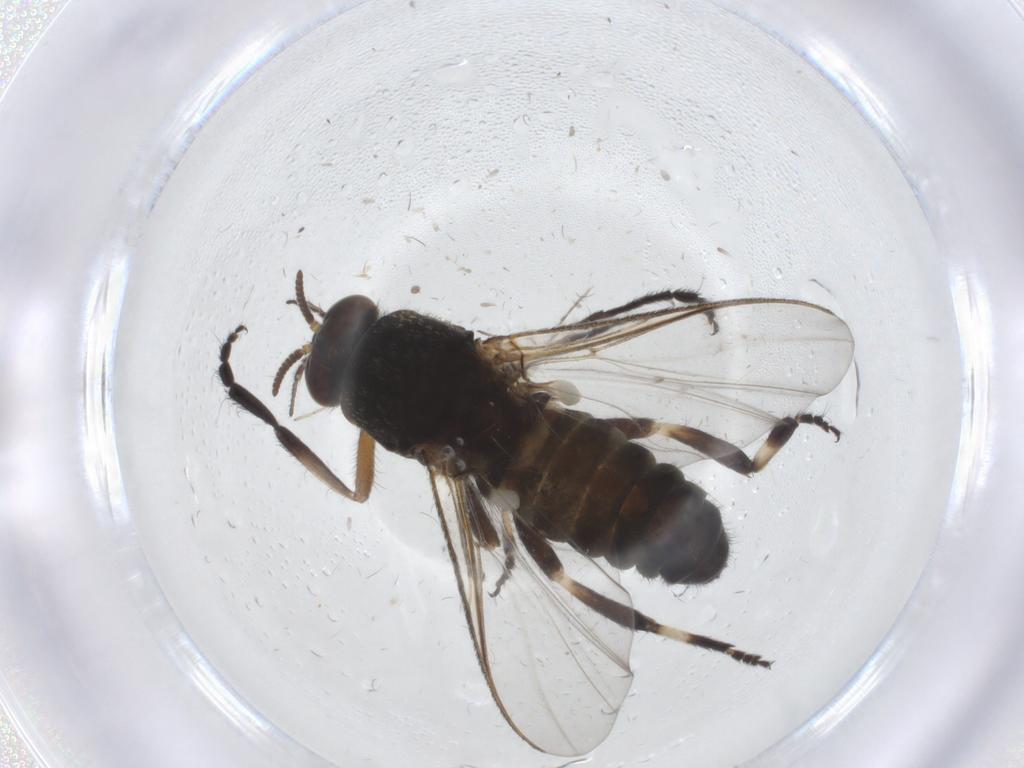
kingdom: Animalia
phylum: Arthropoda
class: Insecta
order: Diptera
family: Hybotidae
